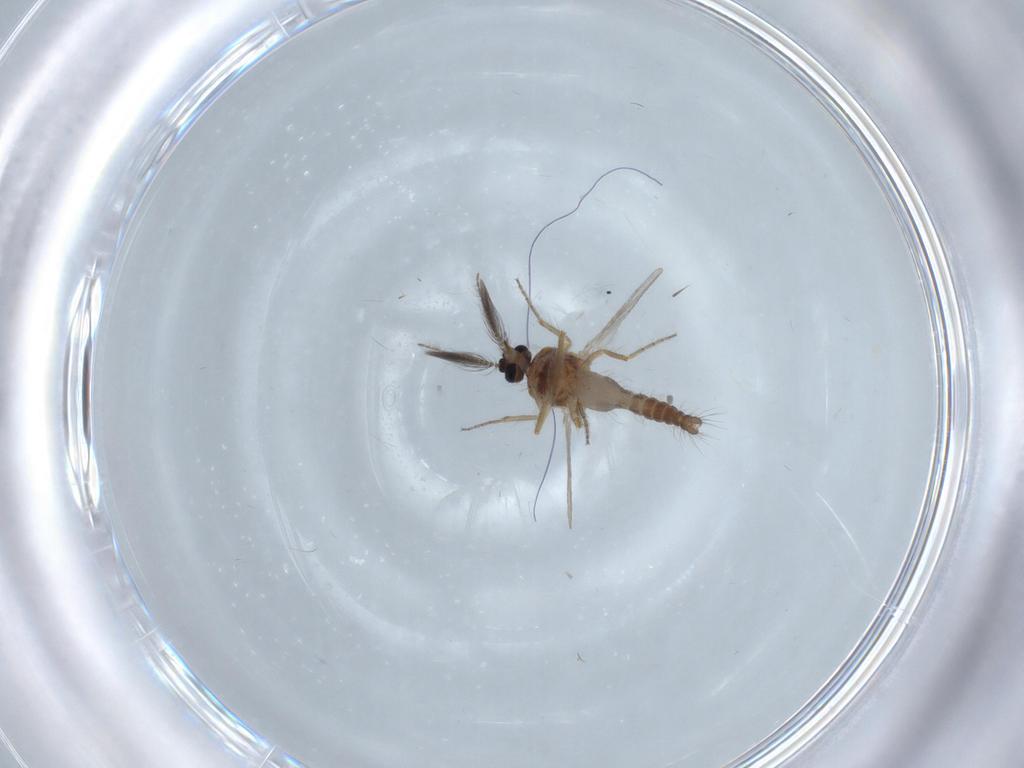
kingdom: Animalia
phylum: Arthropoda
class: Insecta
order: Diptera
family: Ceratopogonidae
